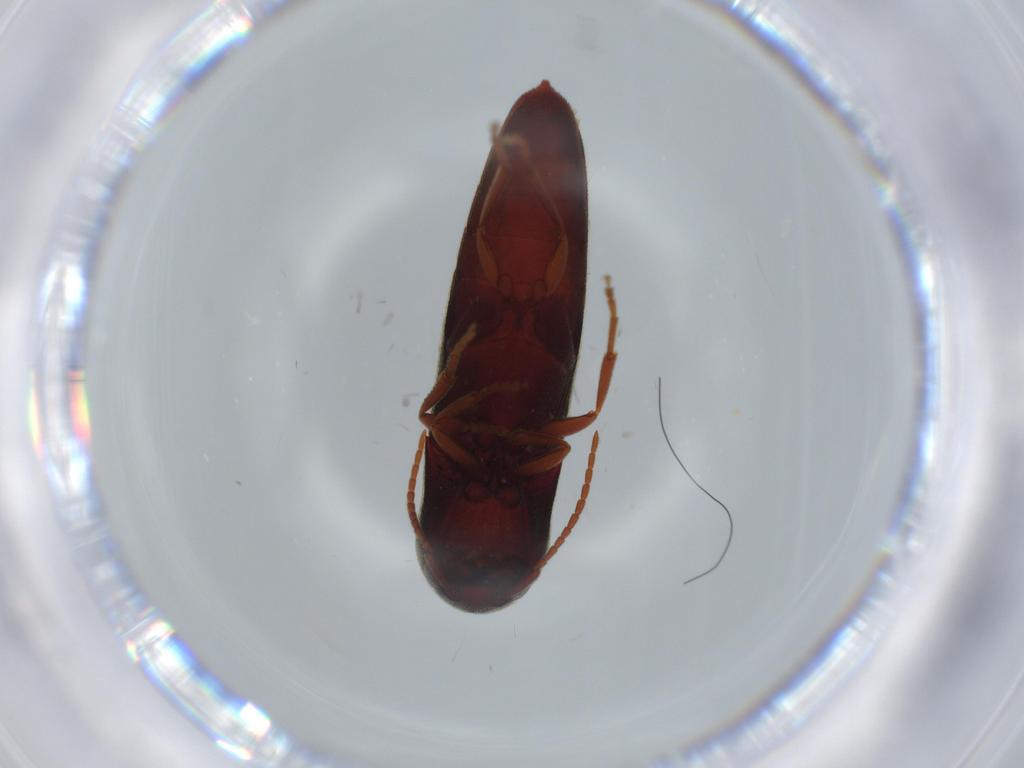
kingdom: Animalia
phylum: Arthropoda
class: Insecta
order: Coleoptera
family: Eucnemidae
